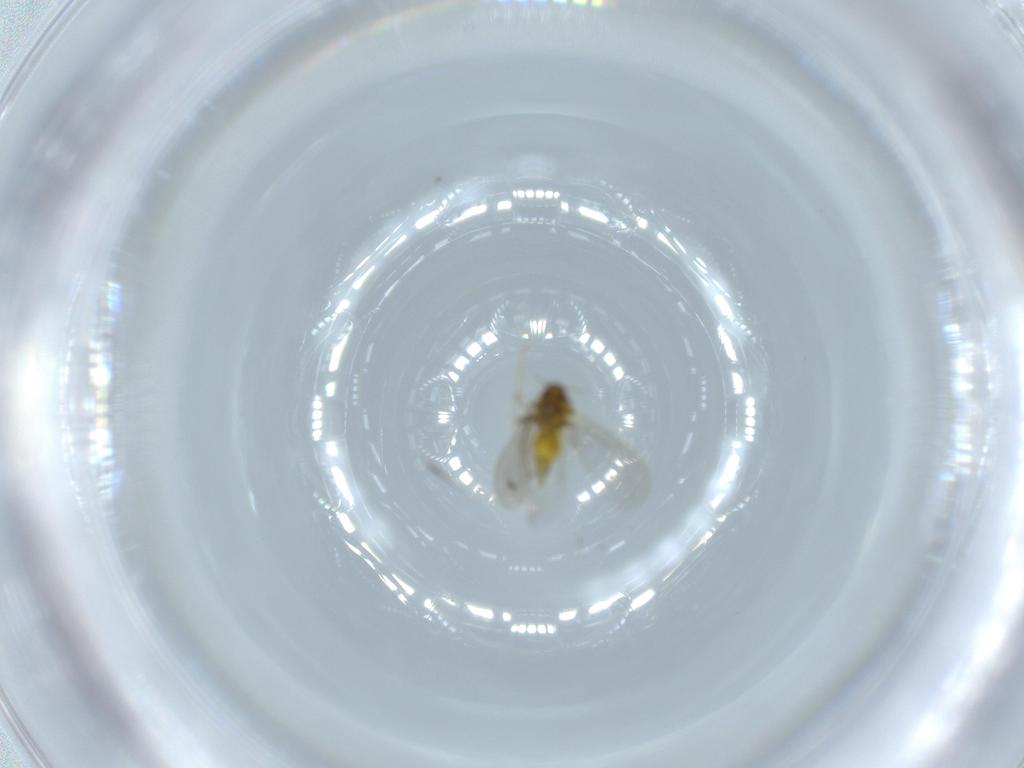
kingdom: Animalia
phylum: Arthropoda
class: Insecta
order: Hemiptera
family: Aleyrodidae
